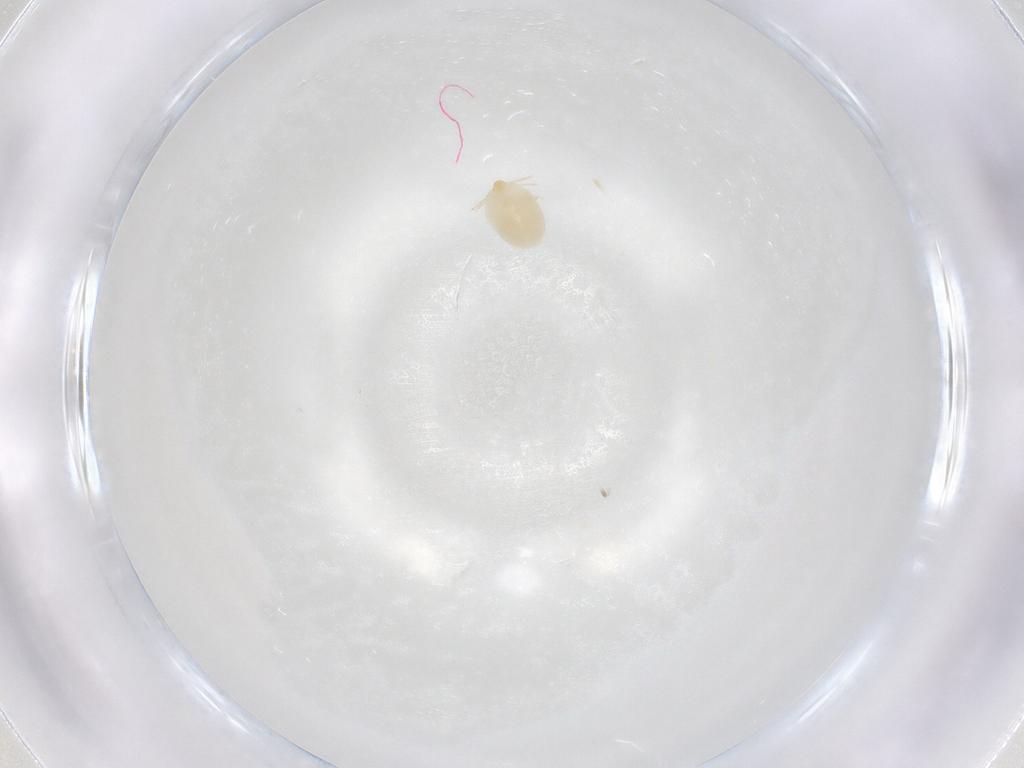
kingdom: Animalia
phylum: Arthropoda
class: Arachnida
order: Trombidiformes
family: Microtrombidiidae
